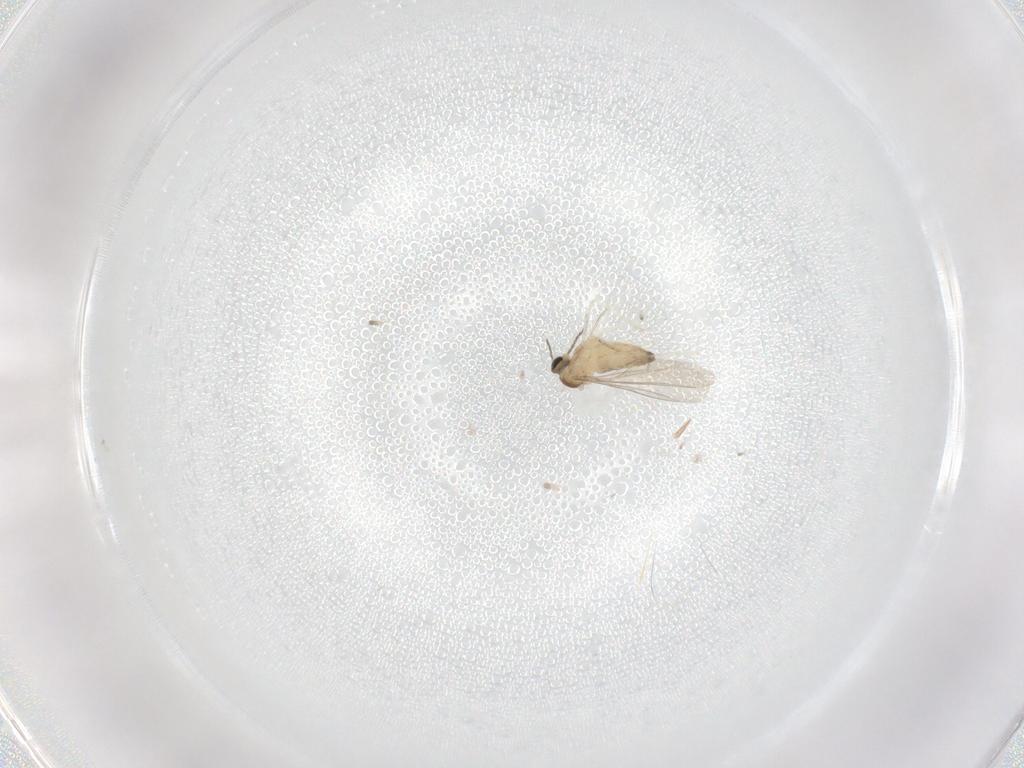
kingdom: Animalia
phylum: Arthropoda
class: Insecta
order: Diptera
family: Cecidomyiidae
